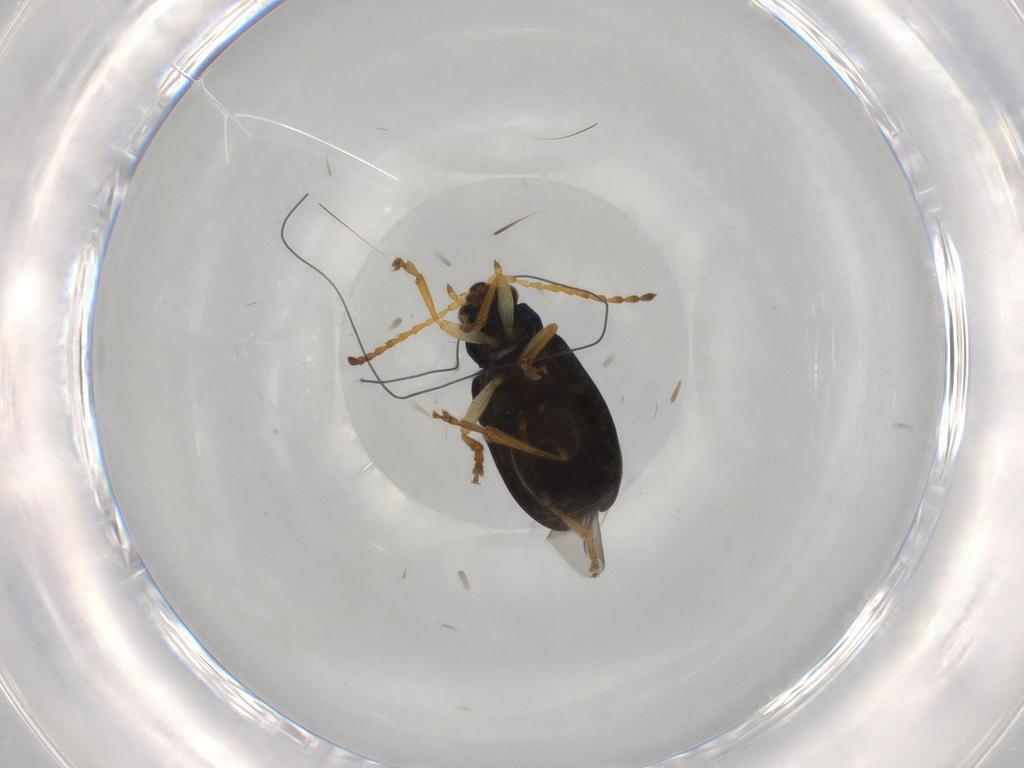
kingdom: Animalia
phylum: Arthropoda
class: Insecta
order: Coleoptera
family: Chrysomelidae
